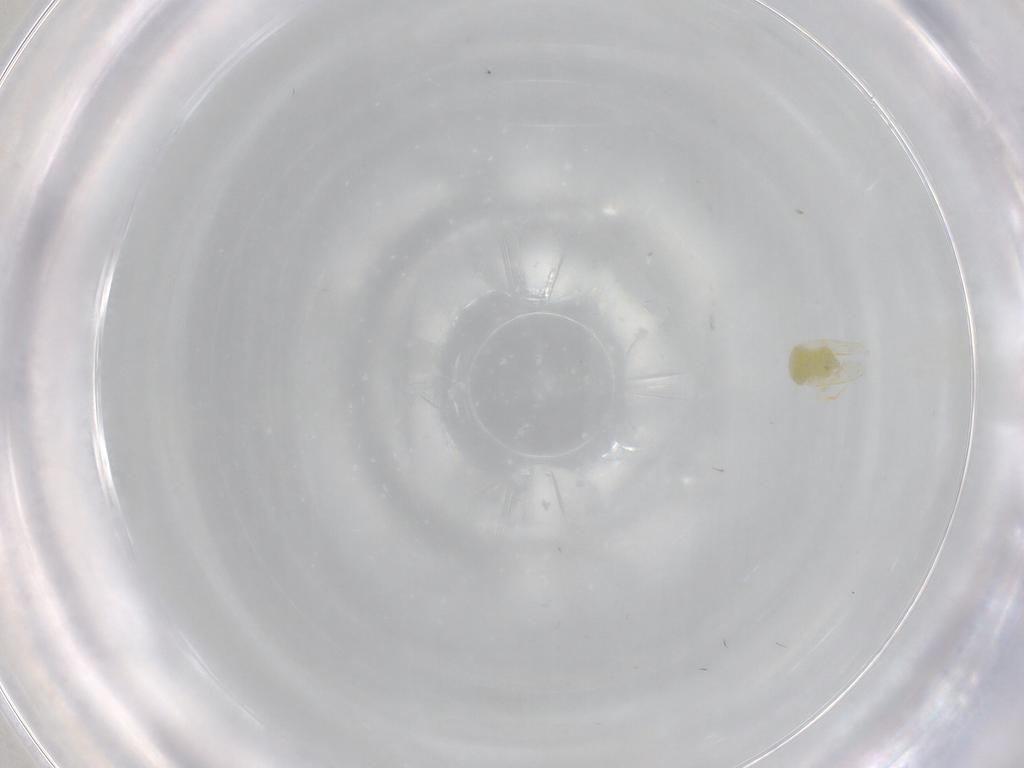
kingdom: Animalia
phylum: Arthropoda
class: Insecta
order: Hemiptera
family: Aleyrodidae
